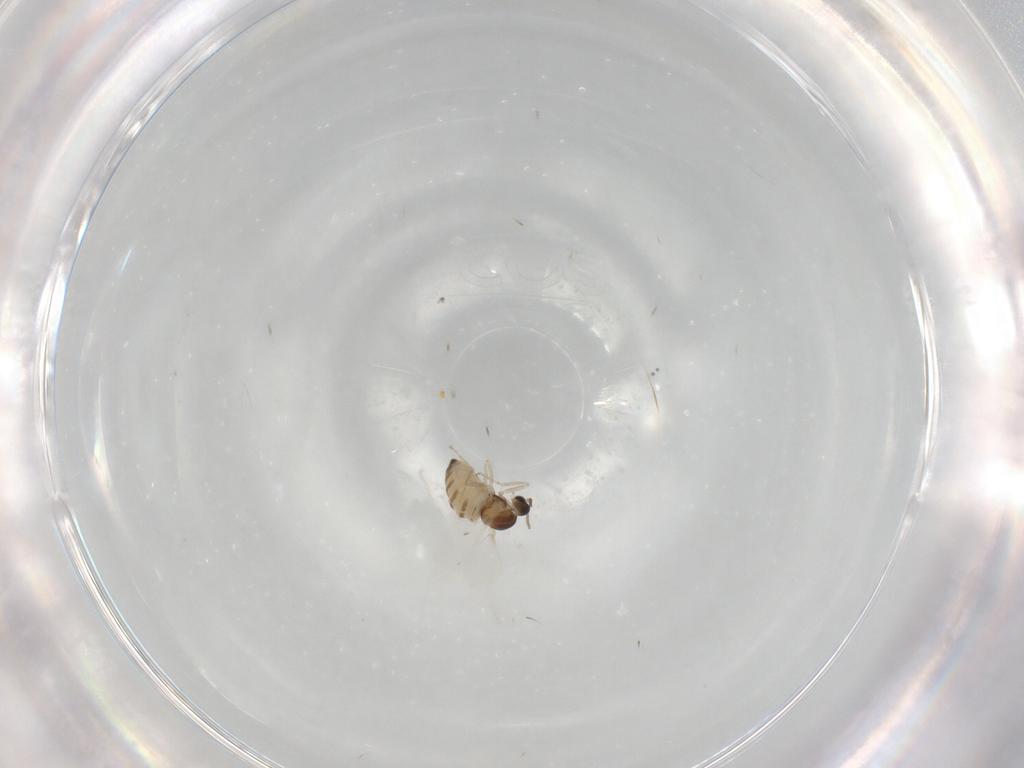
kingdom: Animalia
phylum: Arthropoda
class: Insecta
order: Diptera
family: Cecidomyiidae
